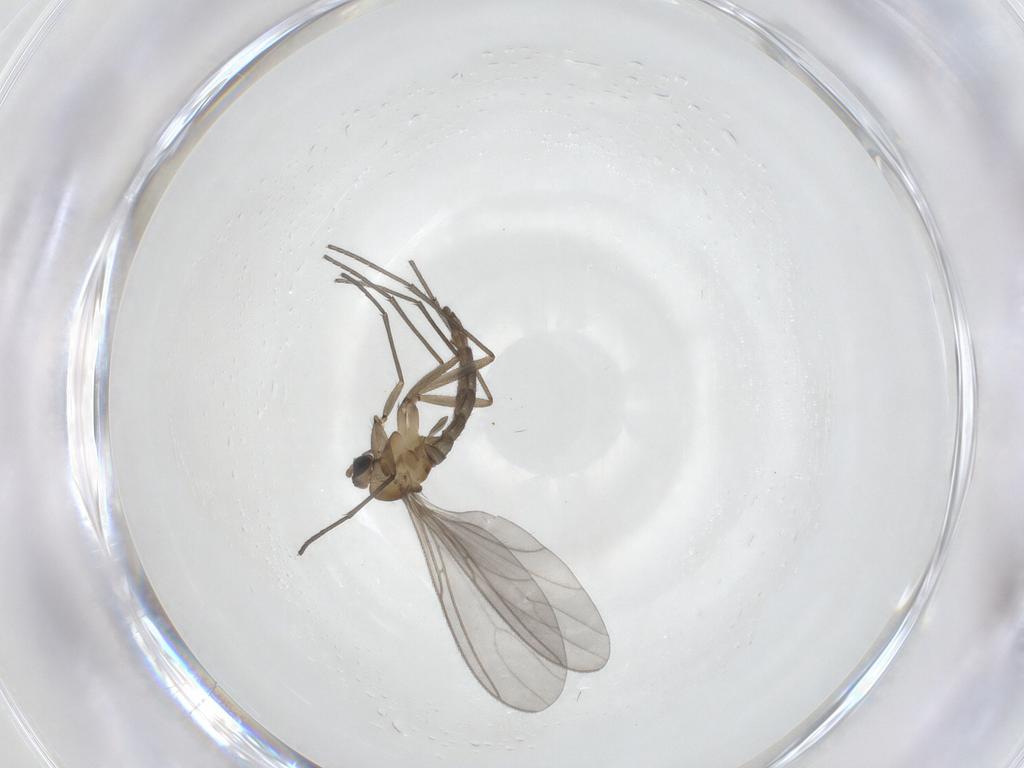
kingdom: Animalia
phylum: Arthropoda
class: Insecta
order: Diptera
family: Sciaridae
